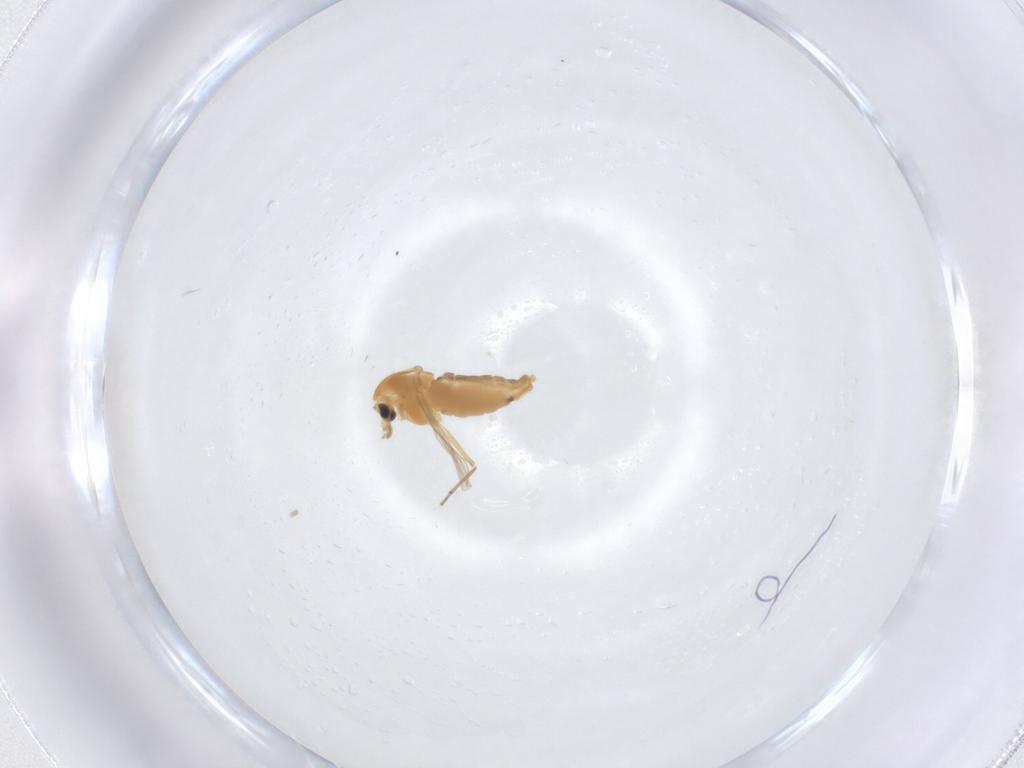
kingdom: Animalia
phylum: Arthropoda
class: Insecta
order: Diptera
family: Chironomidae
